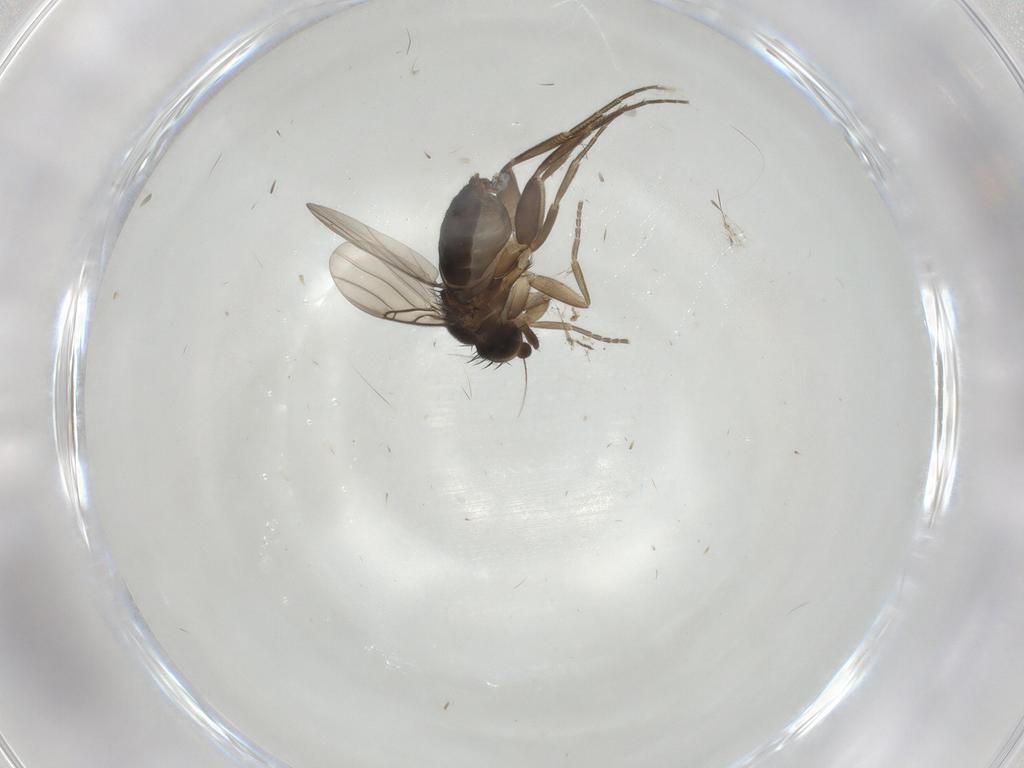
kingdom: Animalia
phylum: Arthropoda
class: Insecta
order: Diptera
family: Phoridae
